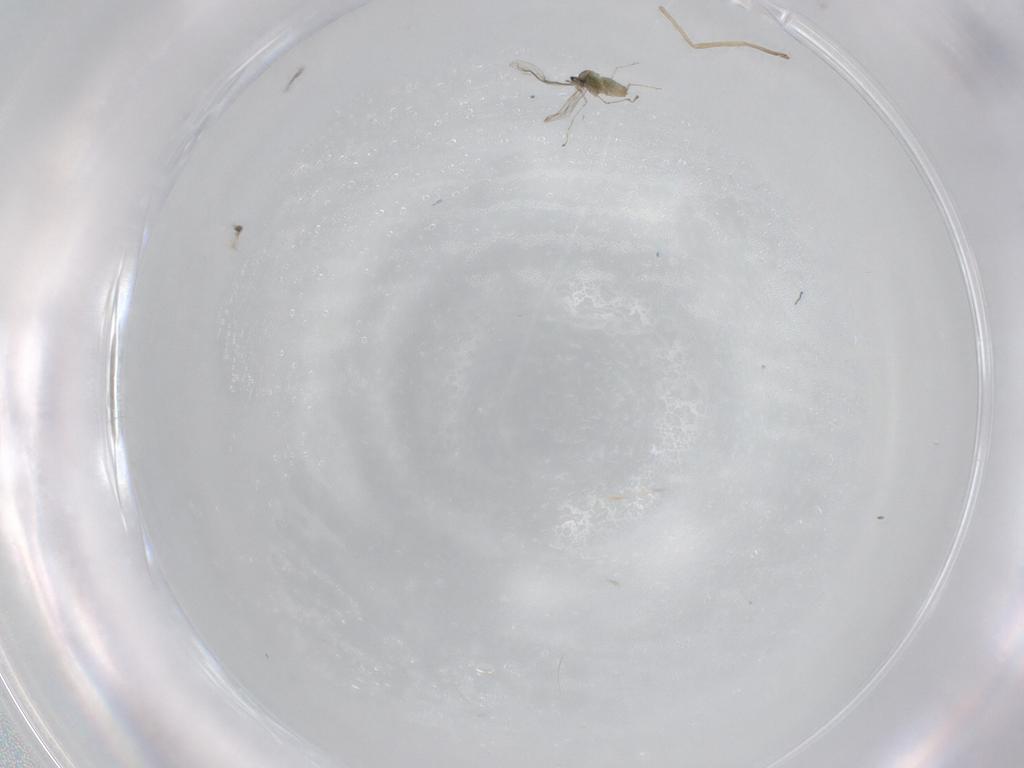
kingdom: Animalia
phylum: Arthropoda
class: Insecta
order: Diptera
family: Cecidomyiidae
